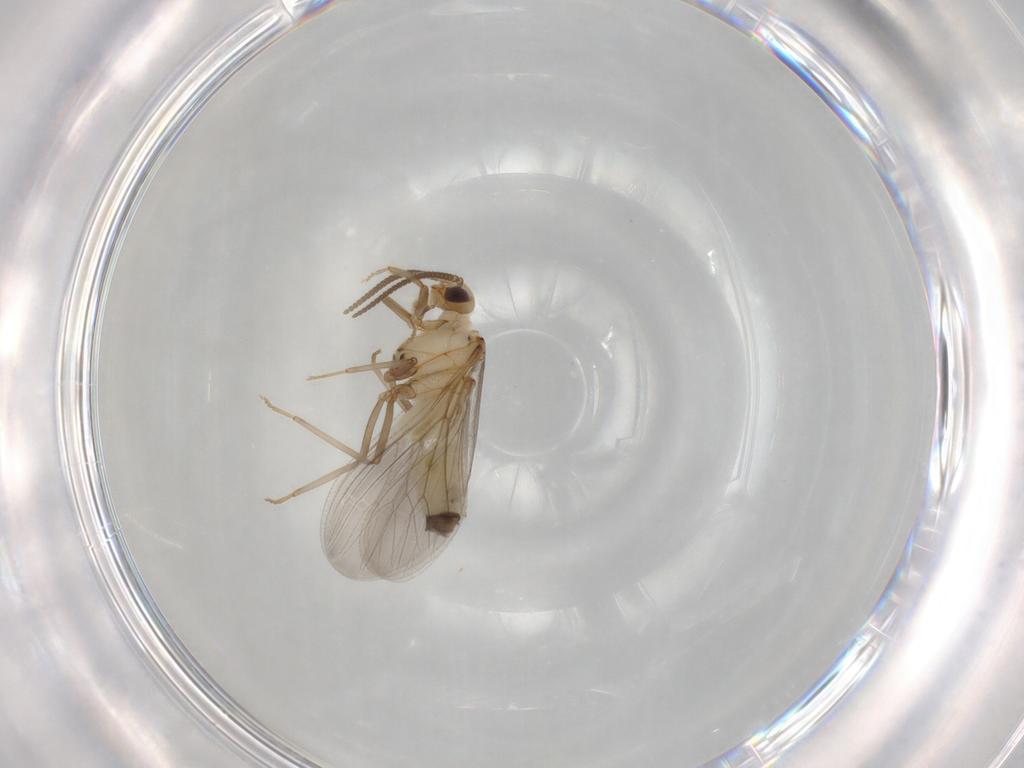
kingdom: Animalia
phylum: Arthropoda
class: Insecta
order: Neuroptera
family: Coniopterygidae
